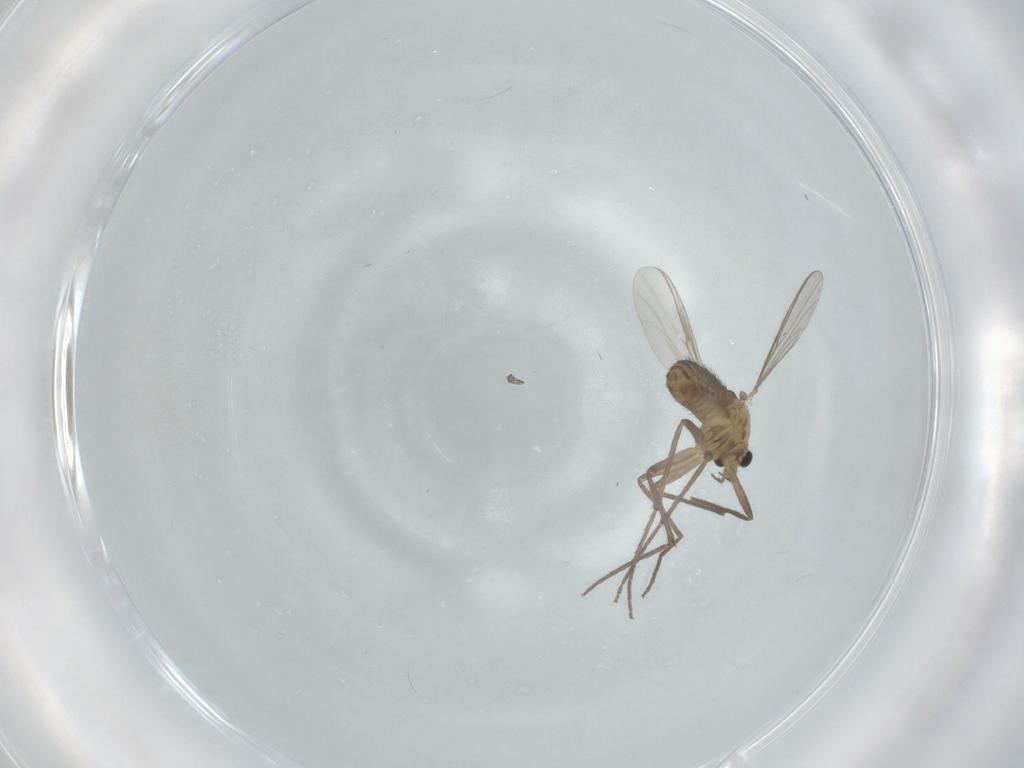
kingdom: Animalia
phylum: Arthropoda
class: Insecta
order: Diptera
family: Chironomidae
